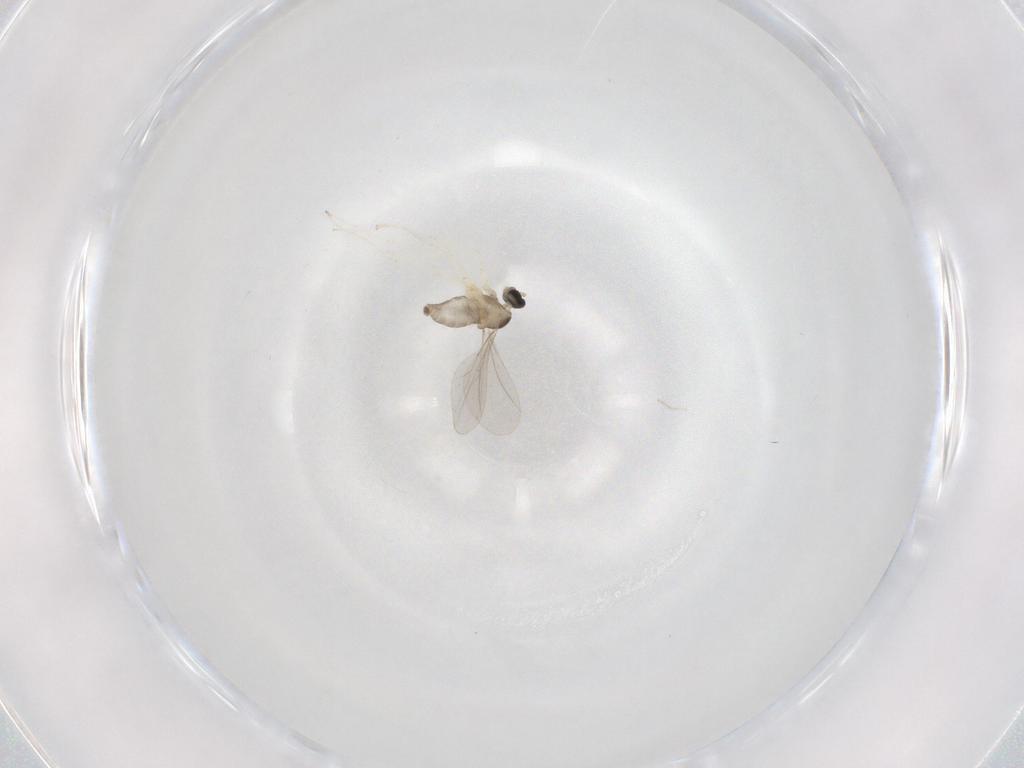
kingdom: Animalia
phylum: Arthropoda
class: Insecta
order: Diptera
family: Cecidomyiidae
